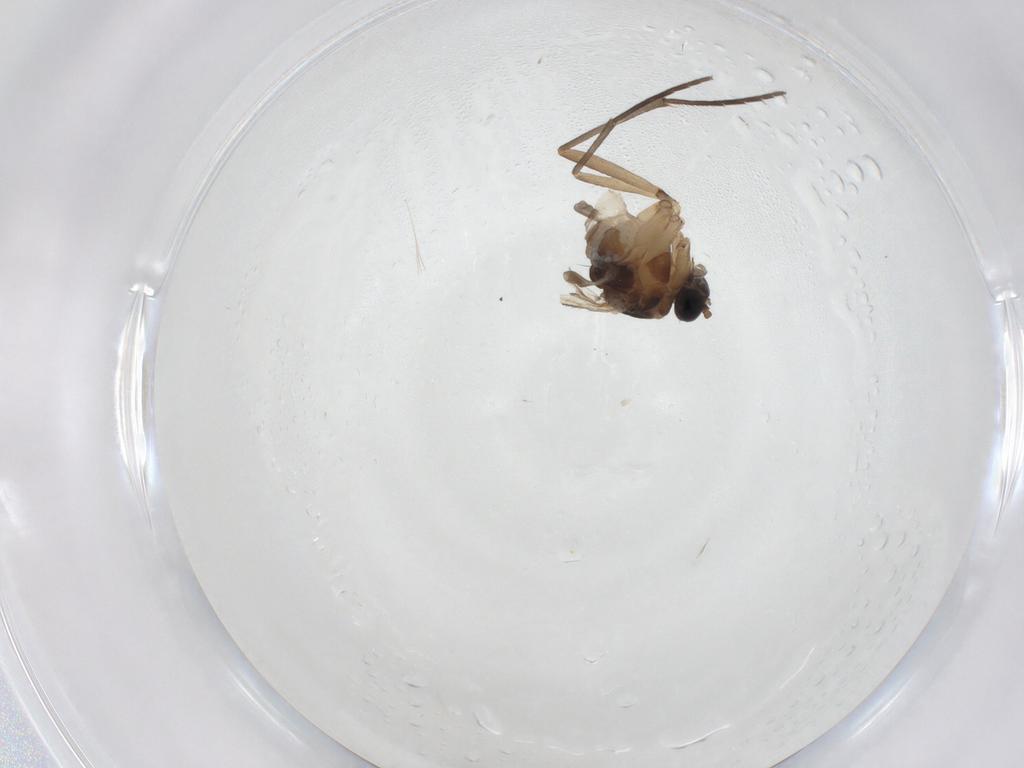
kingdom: Animalia
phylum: Arthropoda
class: Insecta
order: Diptera
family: Sciaridae
